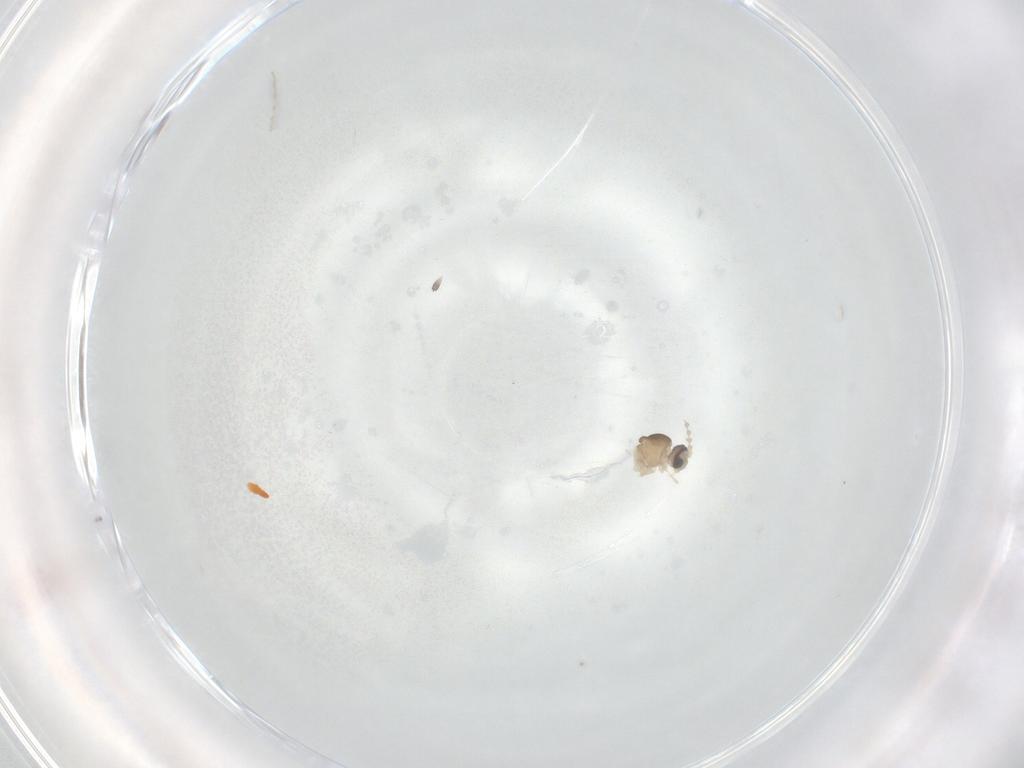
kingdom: Animalia
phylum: Arthropoda
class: Insecta
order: Diptera
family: Cecidomyiidae
